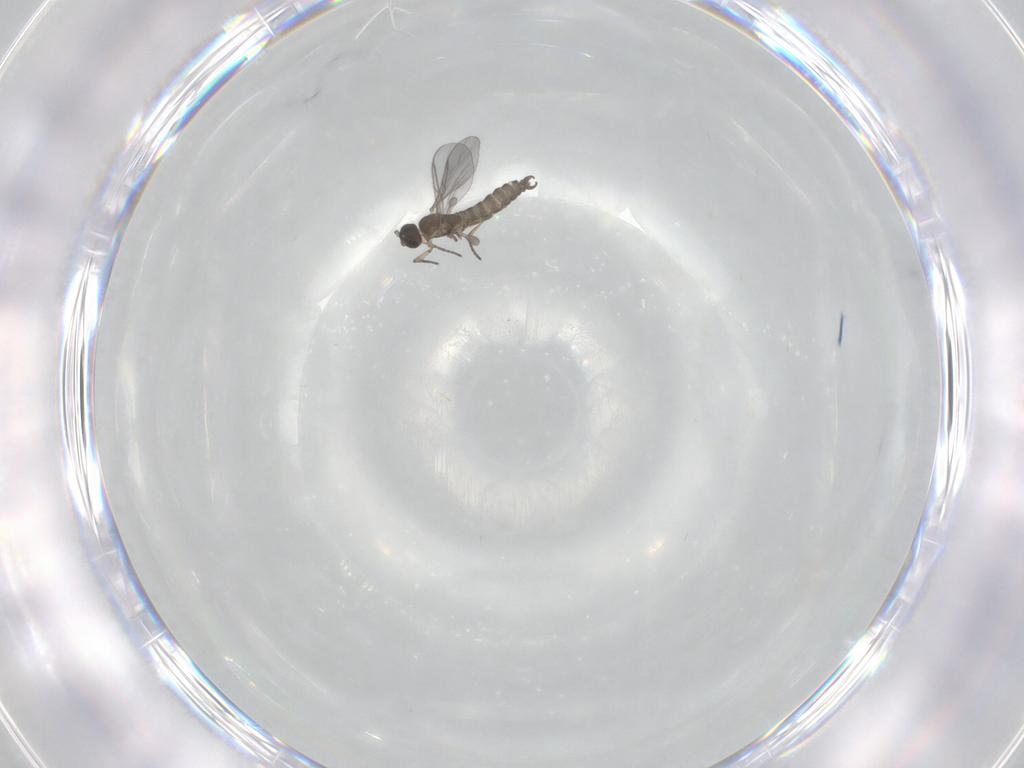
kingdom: Animalia
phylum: Arthropoda
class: Insecta
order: Diptera
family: Sciaridae
